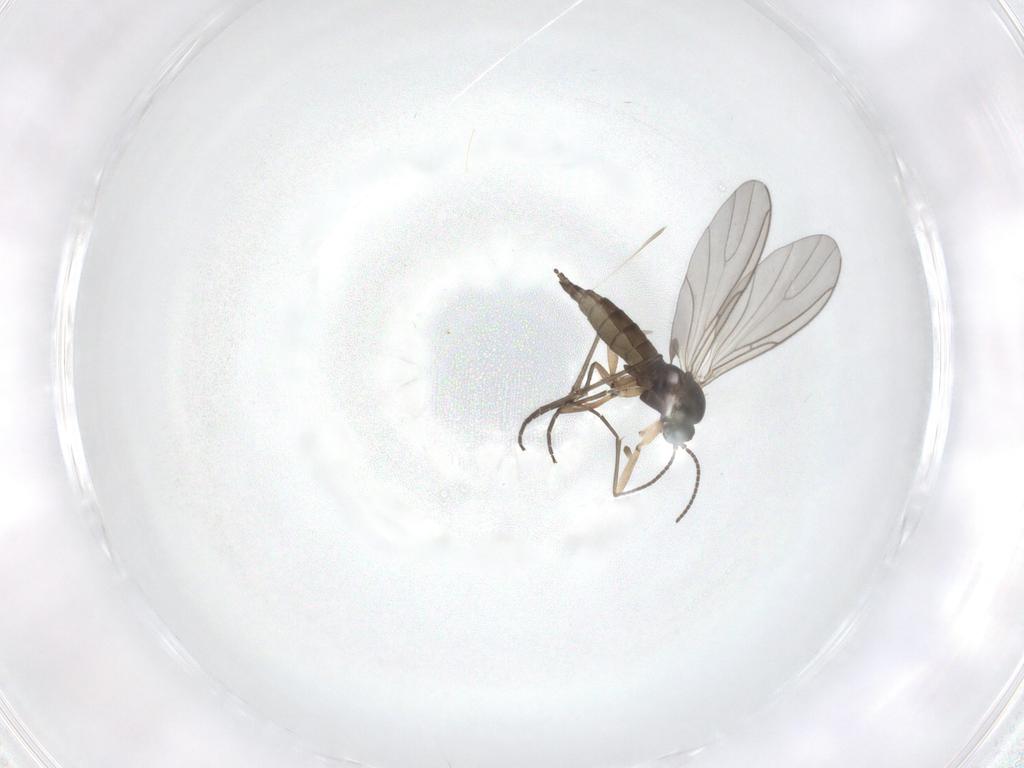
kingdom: Animalia
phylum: Arthropoda
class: Insecta
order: Diptera
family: Sciaridae
